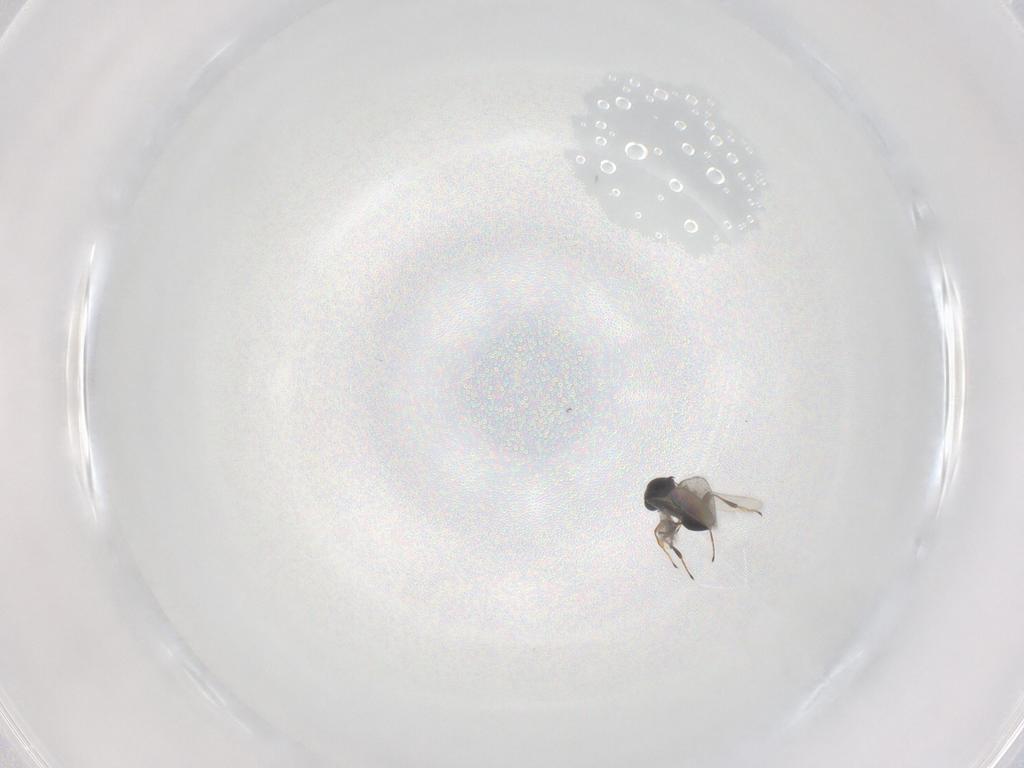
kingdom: Animalia
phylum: Arthropoda
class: Insecta
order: Hymenoptera
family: Platygastridae
